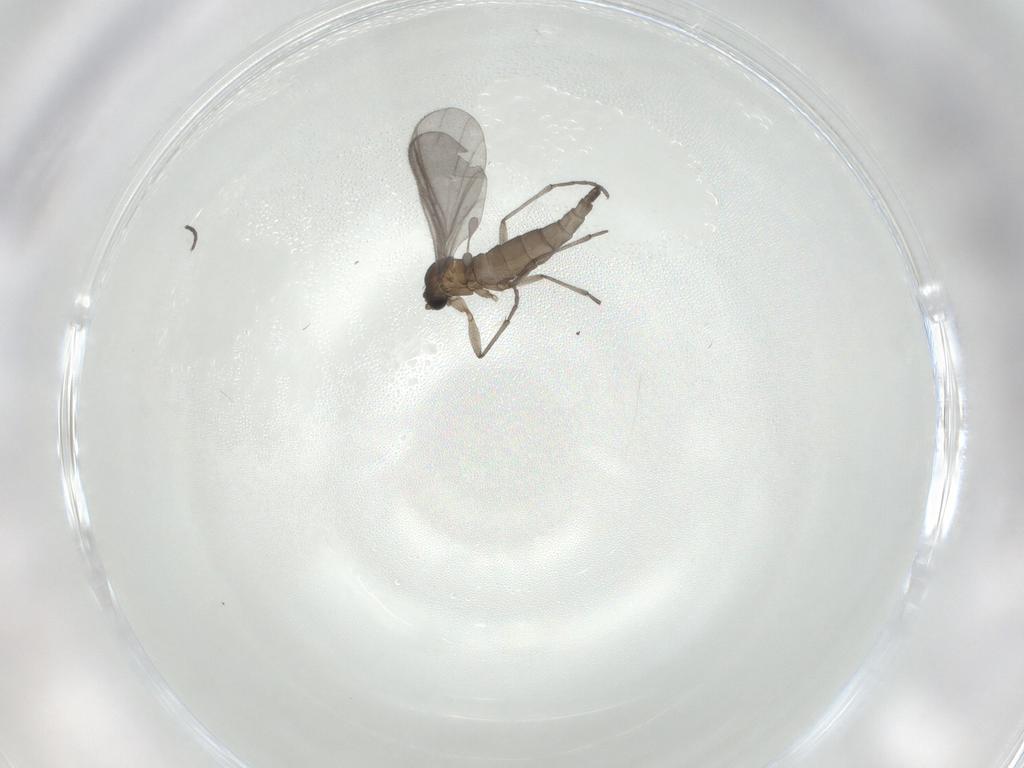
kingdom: Animalia
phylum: Arthropoda
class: Insecta
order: Diptera
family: Sciaridae
